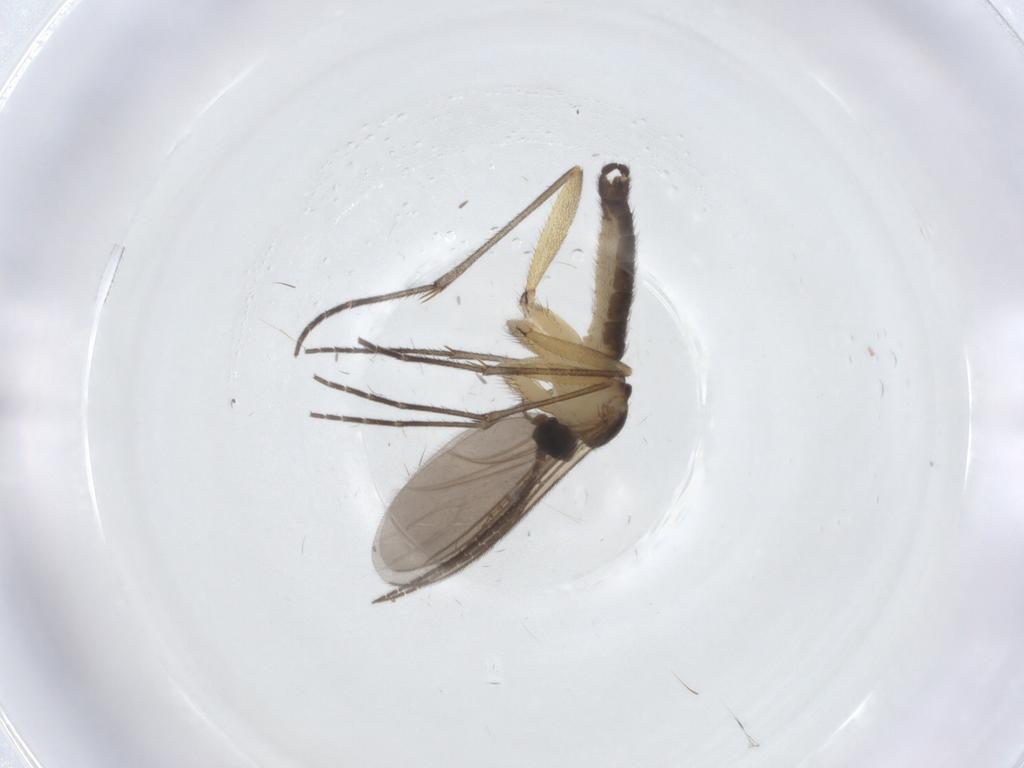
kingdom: Animalia
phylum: Arthropoda
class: Insecta
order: Diptera
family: Sciaridae
